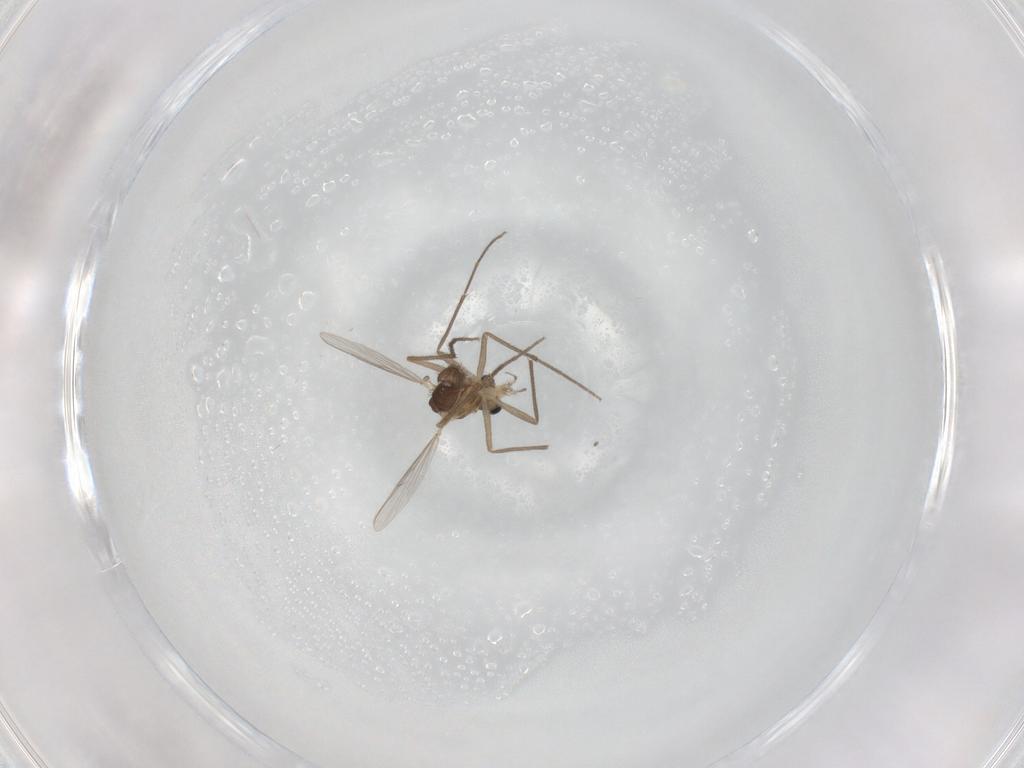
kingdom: Animalia
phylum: Arthropoda
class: Insecta
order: Diptera
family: Chironomidae
